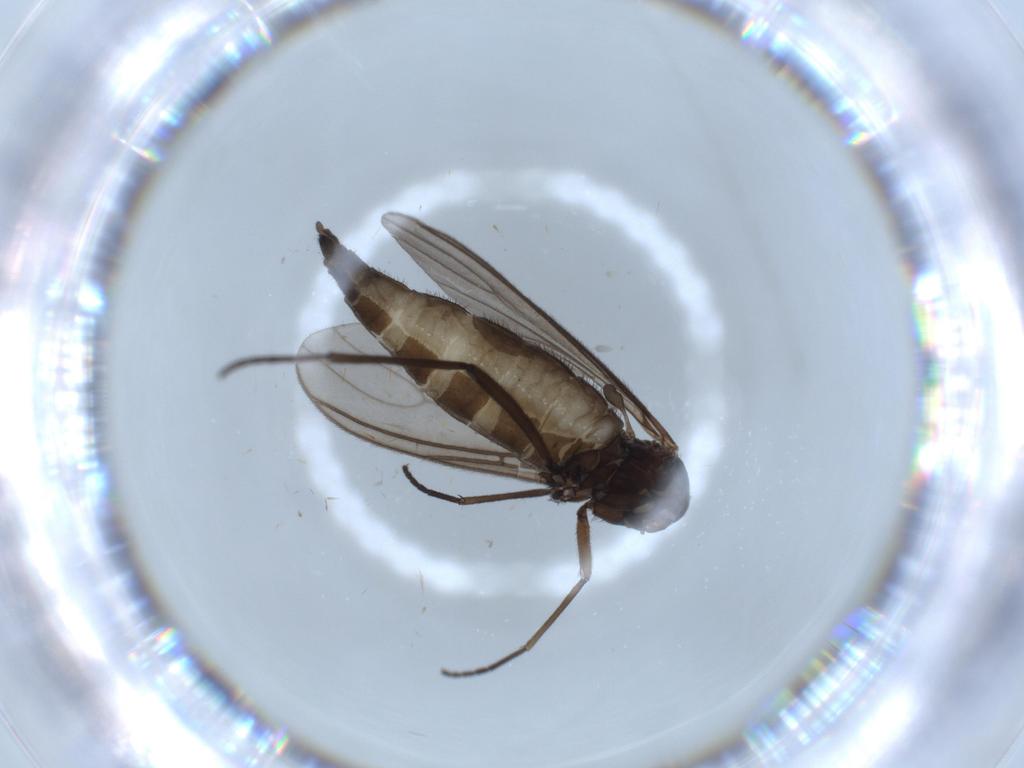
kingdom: Animalia
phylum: Arthropoda
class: Insecta
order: Diptera
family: Sciaridae
